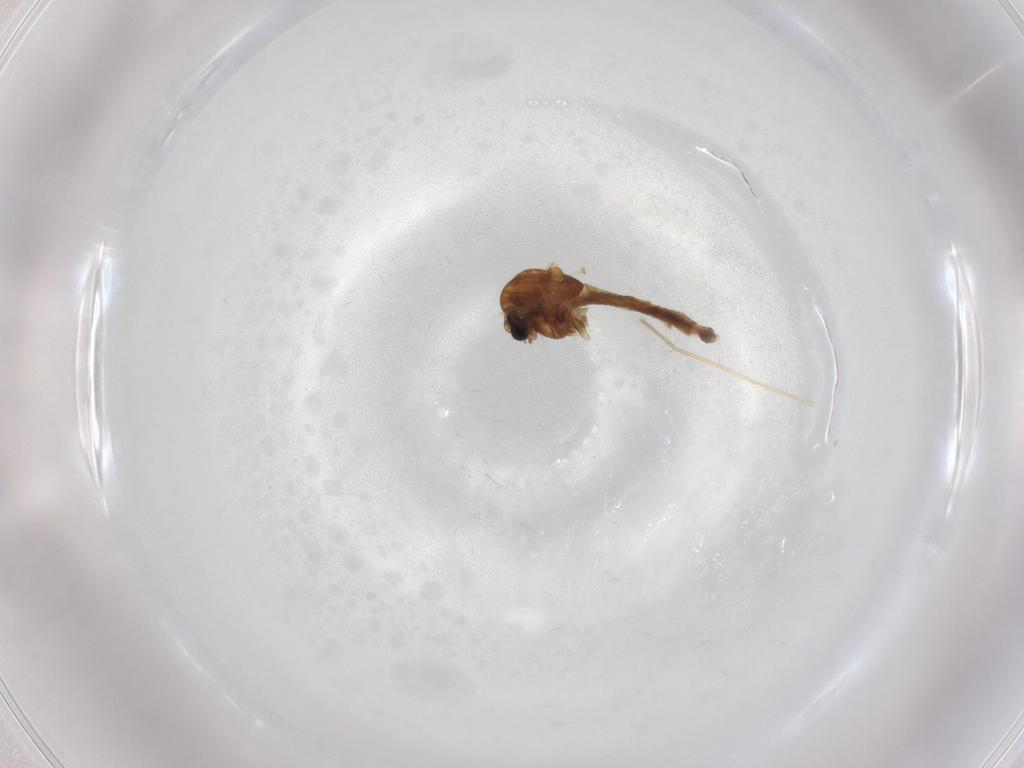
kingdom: Animalia
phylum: Arthropoda
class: Insecta
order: Diptera
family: Chironomidae
